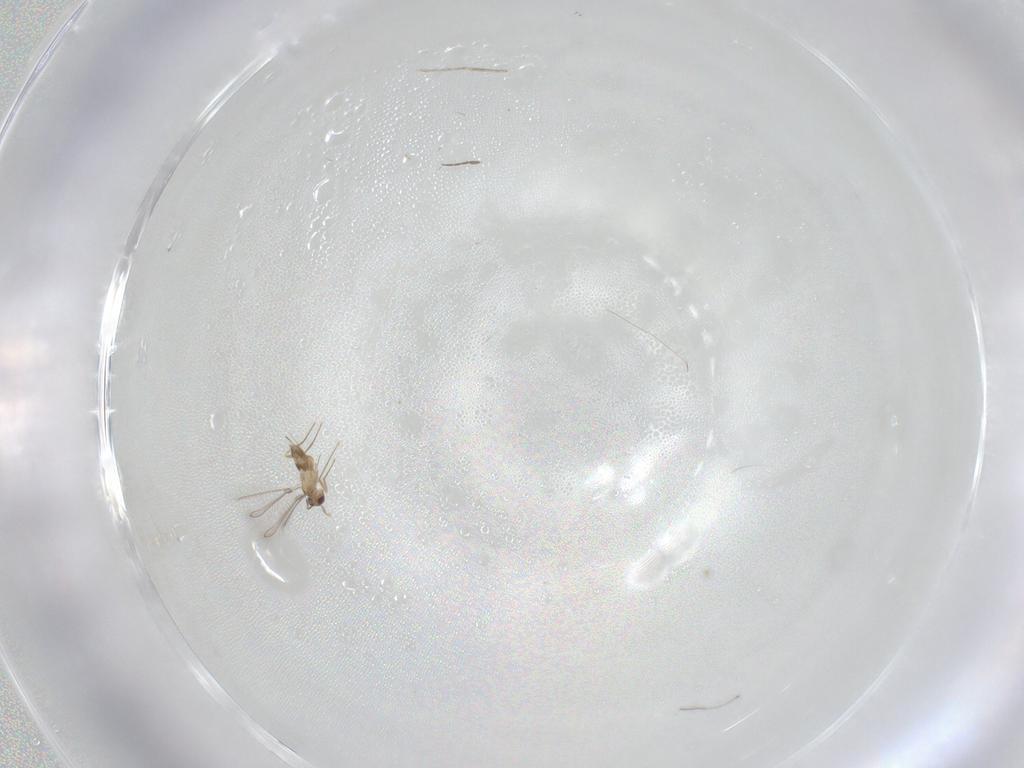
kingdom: Animalia
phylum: Arthropoda
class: Insecta
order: Hymenoptera
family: Mymaridae
